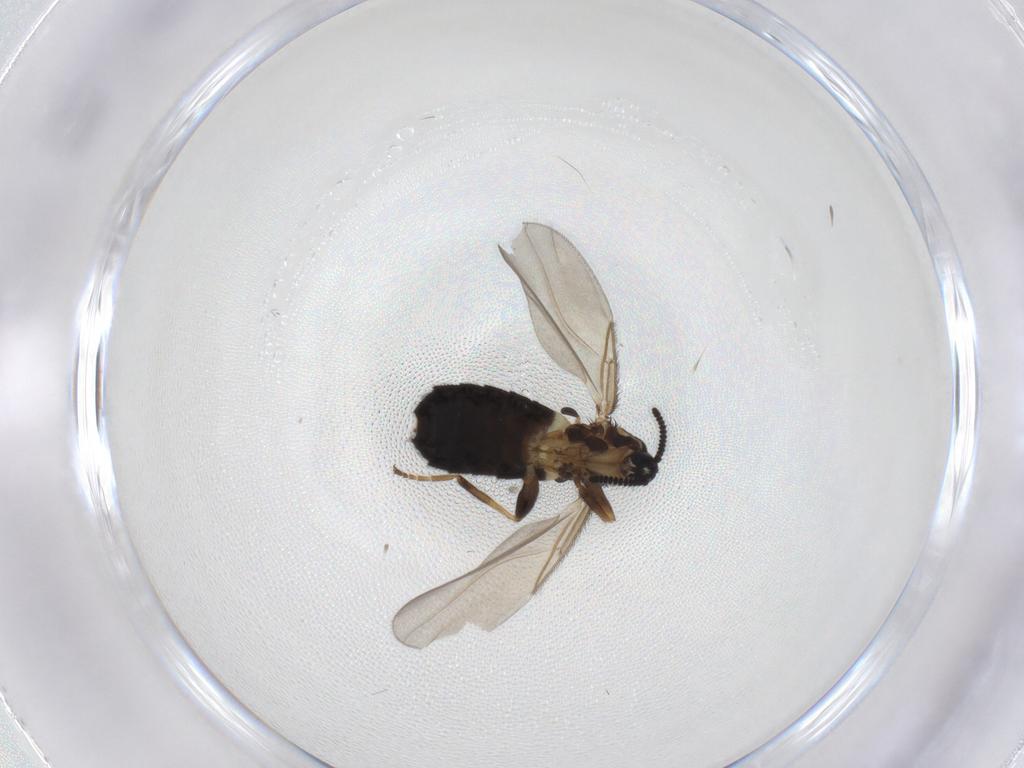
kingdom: Animalia
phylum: Arthropoda
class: Insecta
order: Diptera
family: Scatopsidae
